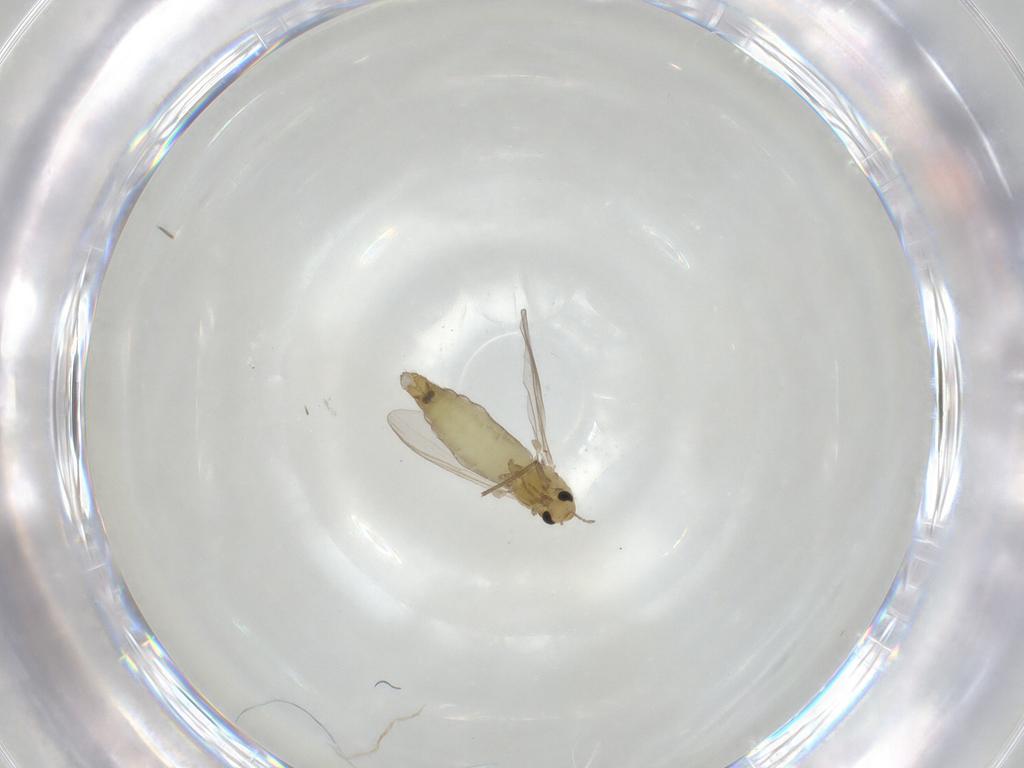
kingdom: Animalia
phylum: Arthropoda
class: Insecta
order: Diptera
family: Chironomidae
